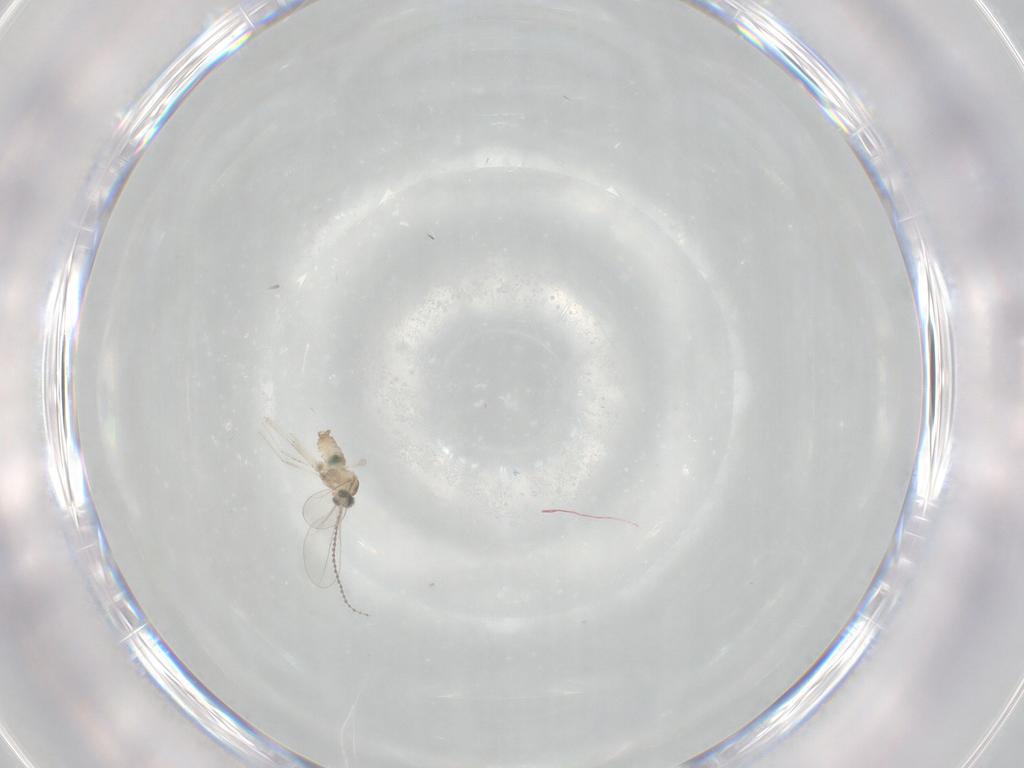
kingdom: Animalia
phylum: Arthropoda
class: Insecta
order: Diptera
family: Cecidomyiidae
